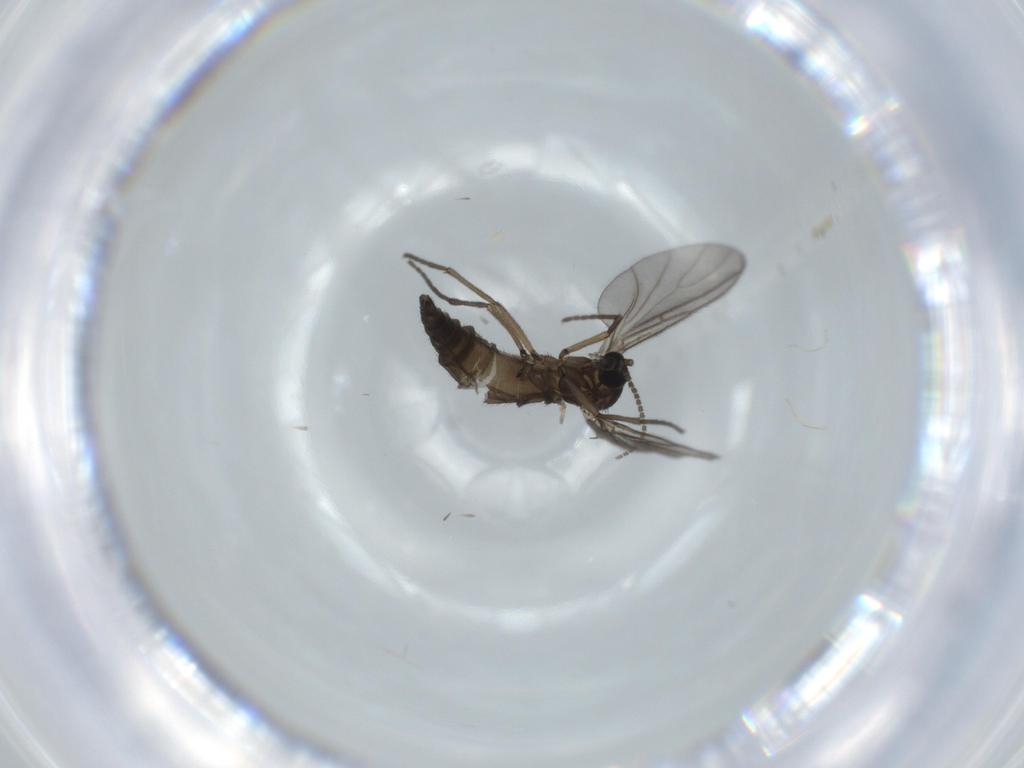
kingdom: Animalia
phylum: Arthropoda
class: Insecta
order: Diptera
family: Sciaridae
